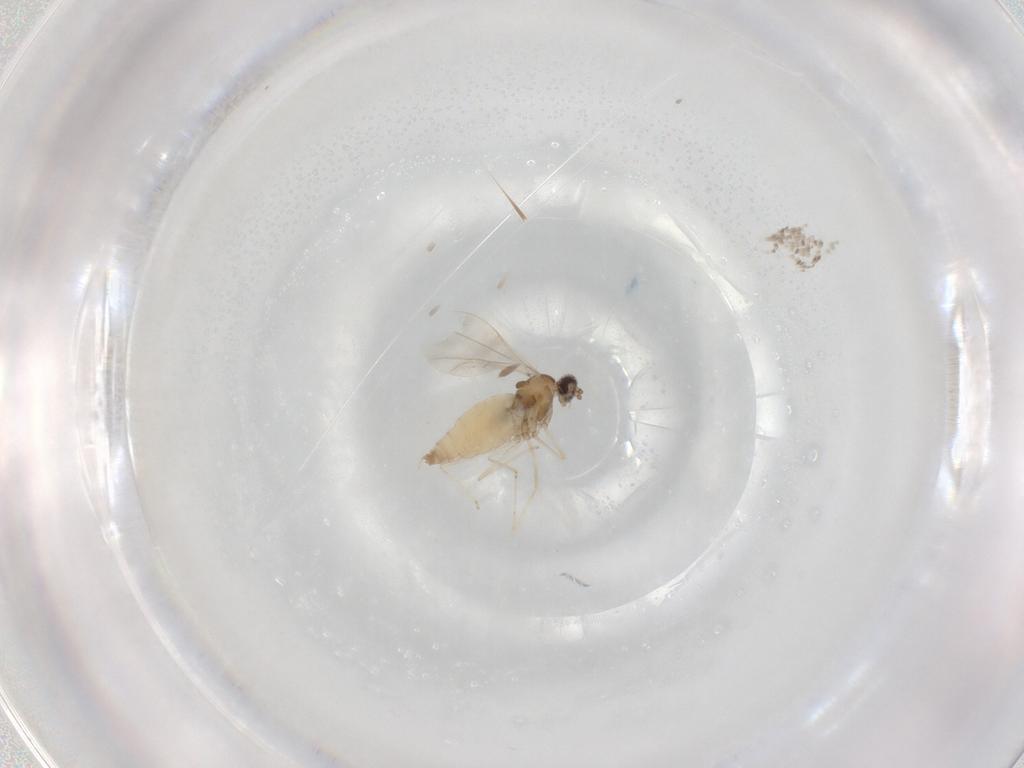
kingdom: Animalia
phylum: Arthropoda
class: Insecta
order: Diptera
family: Cecidomyiidae
